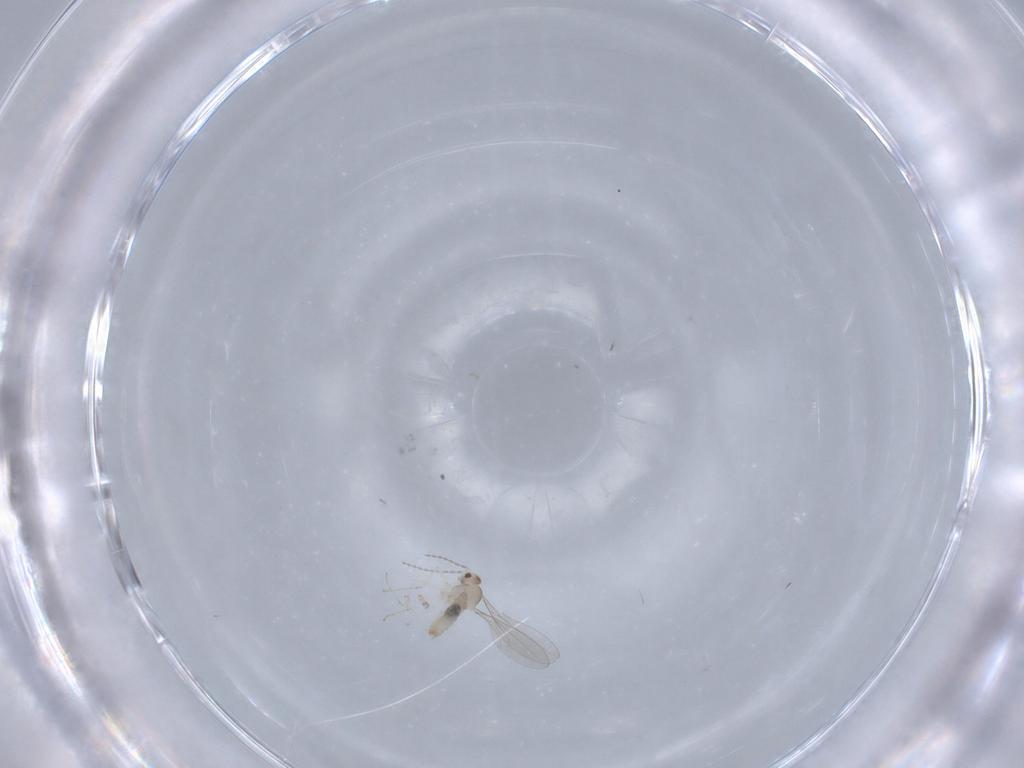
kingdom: Animalia
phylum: Arthropoda
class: Insecta
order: Diptera
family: Cecidomyiidae
